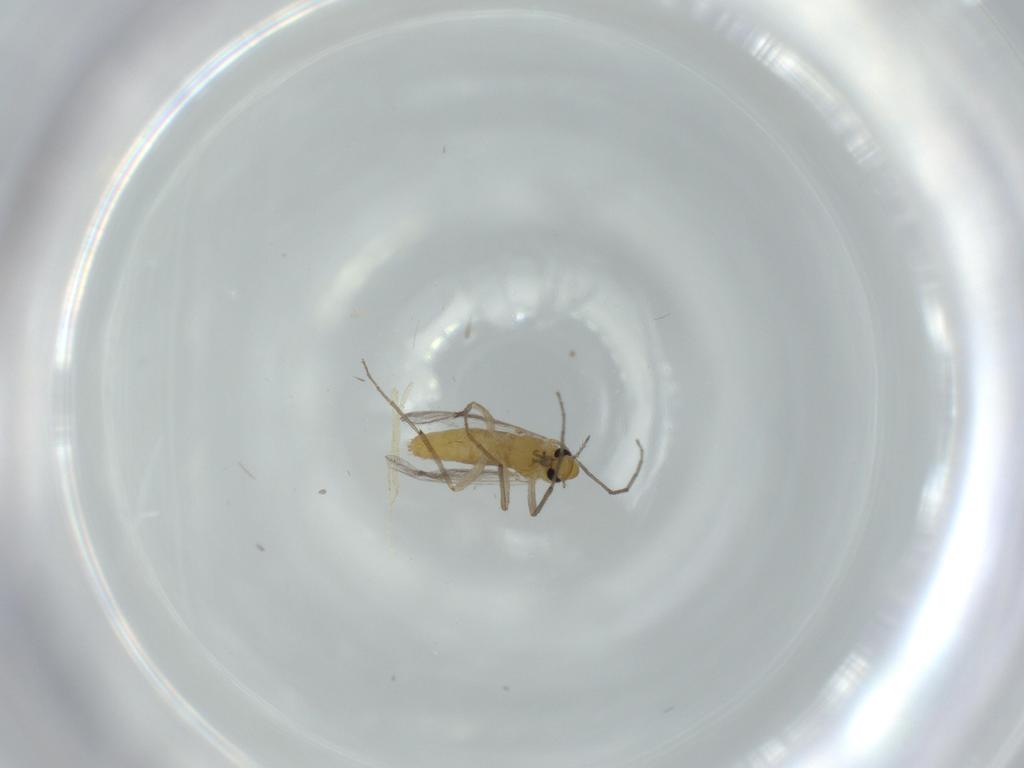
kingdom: Animalia
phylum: Arthropoda
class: Insecta
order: Diptera
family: Chironomidae
